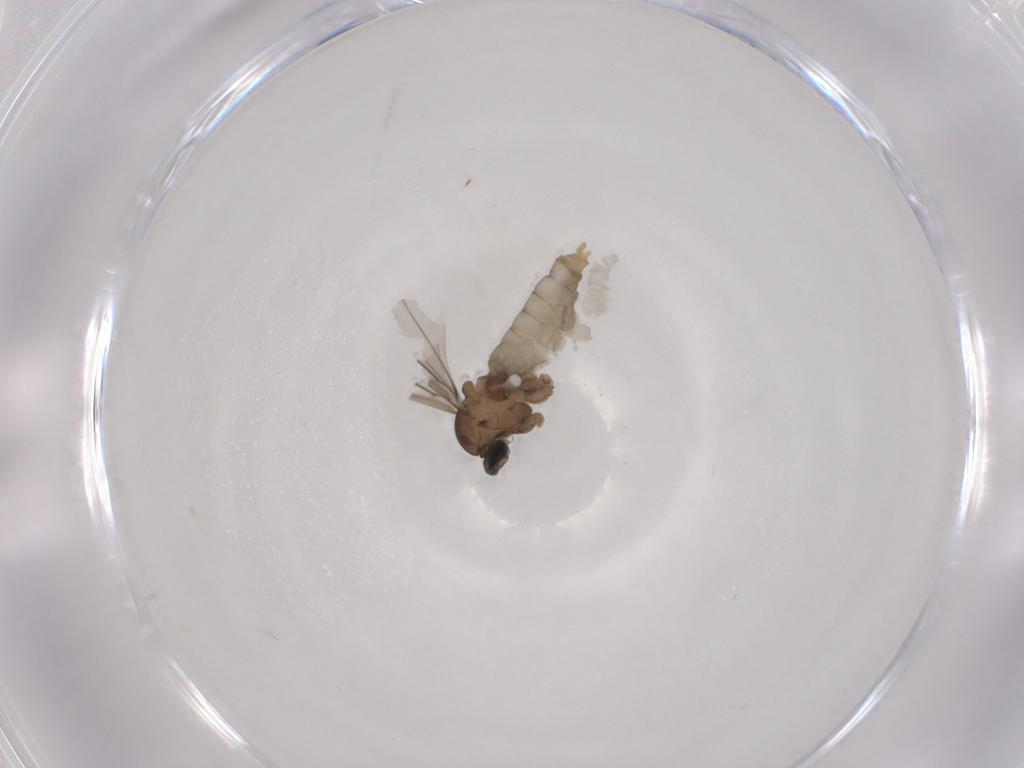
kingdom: Animalia
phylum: Arthropoda
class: Insecta
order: Diptera
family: Cecidomyiidae
